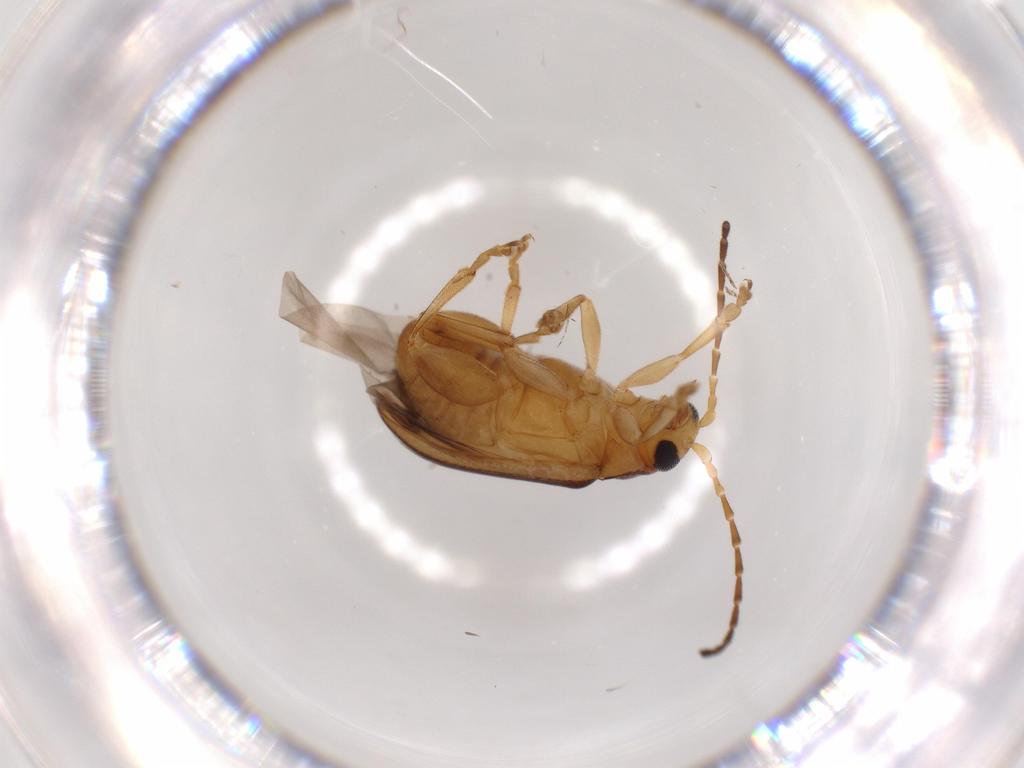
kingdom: Animalia
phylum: Arthropoda
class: Insecta
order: Coleoptera
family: Chrysomelidae
